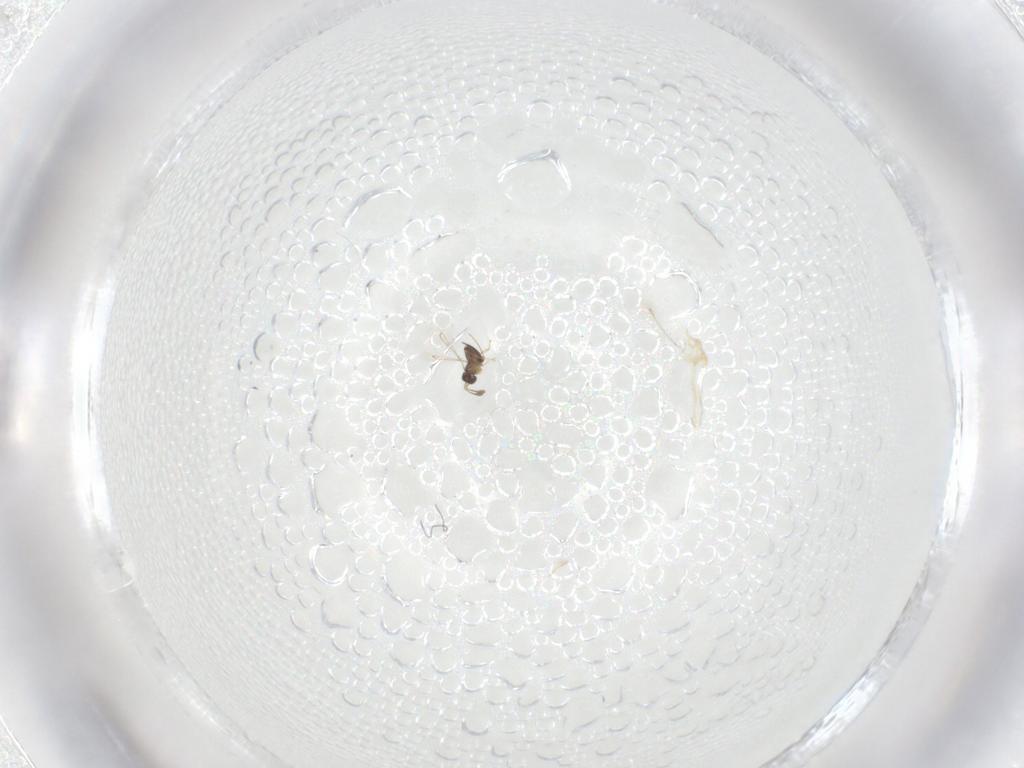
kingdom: Animalia
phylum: Arthropoda
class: Insecta
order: Hymenoptera
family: Mymaridae
